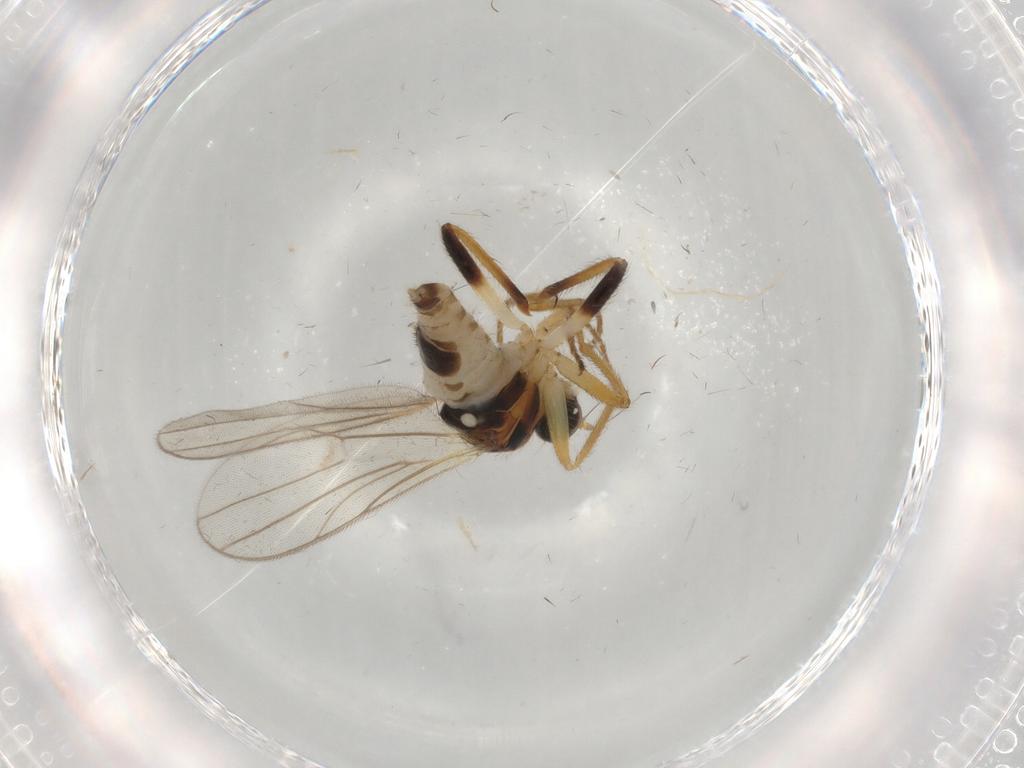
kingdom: Animalia
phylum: Arthropoda
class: Insecta
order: Diptera
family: Hybotidae
